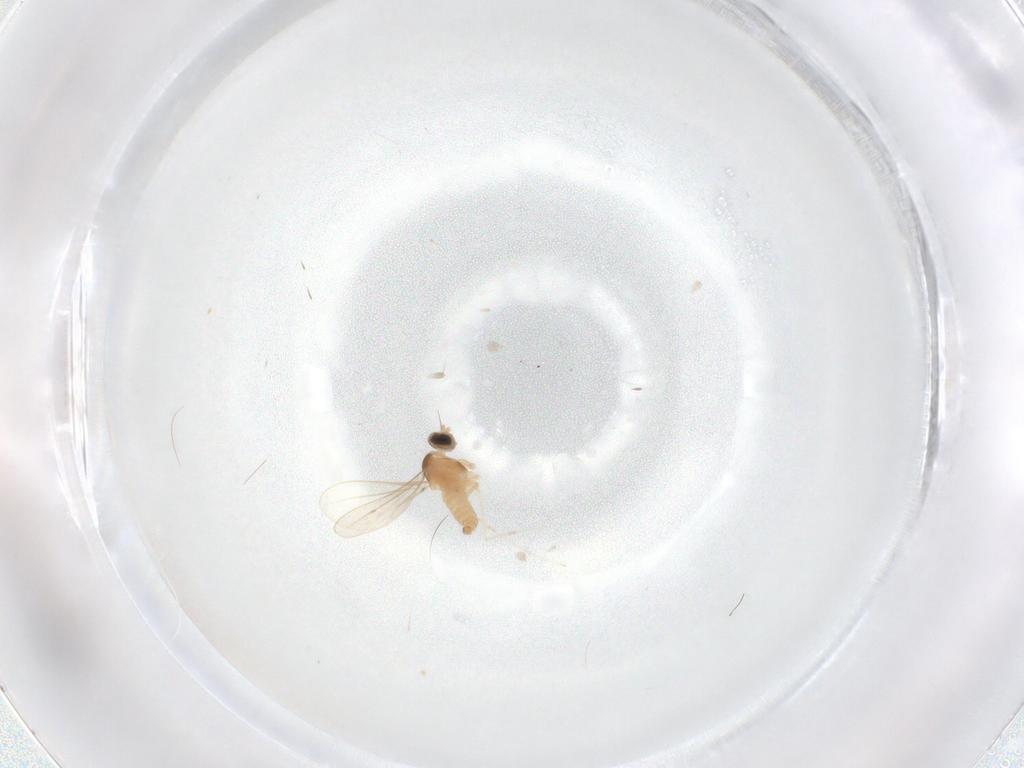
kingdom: Animalia
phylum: Arthropoda
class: Insecta
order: Diptera
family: Cecidomyiidae
